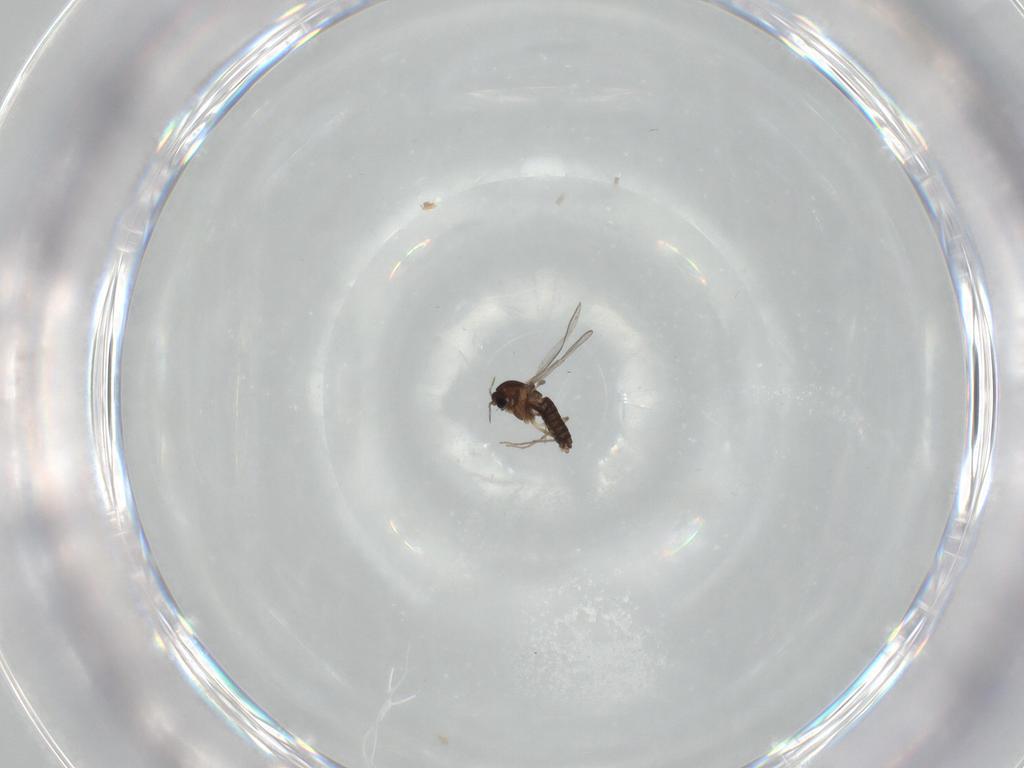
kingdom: Animalia
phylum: Arthropoda
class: Insecta
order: Diptera
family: Chironomidae
